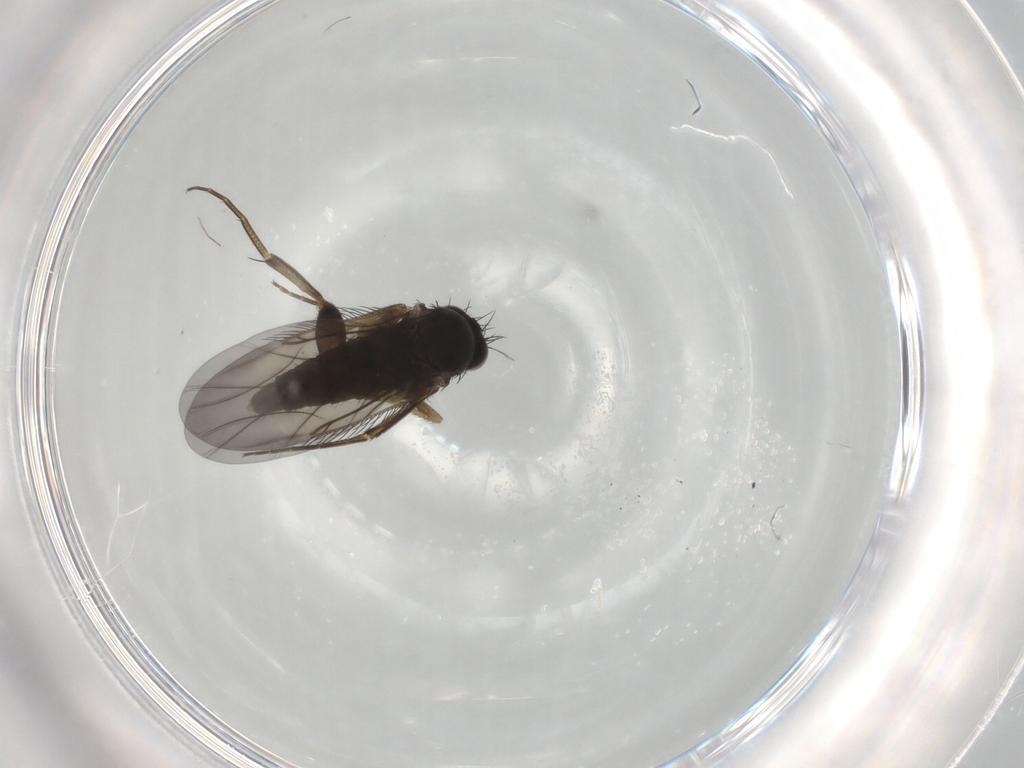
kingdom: Animalia
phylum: Arthropoda
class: Insecta
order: Diptera
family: Phoridae
